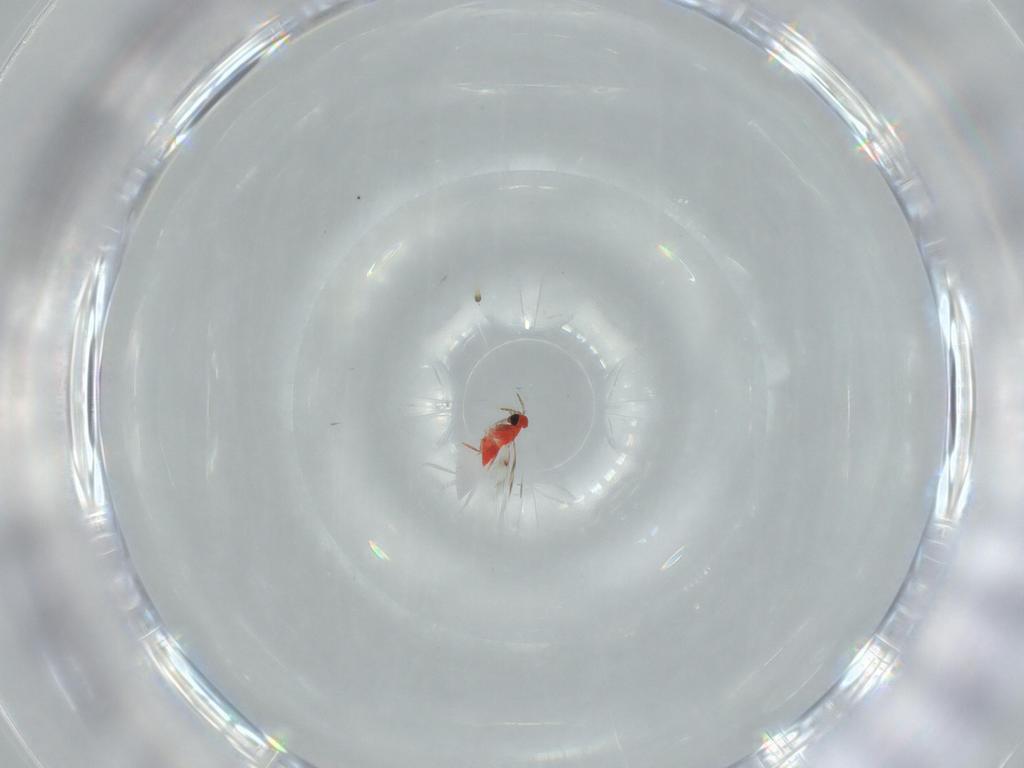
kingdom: Animalia
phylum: Arthropoda
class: Insecta
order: Hymenoptera
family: Trichogrammatidae
